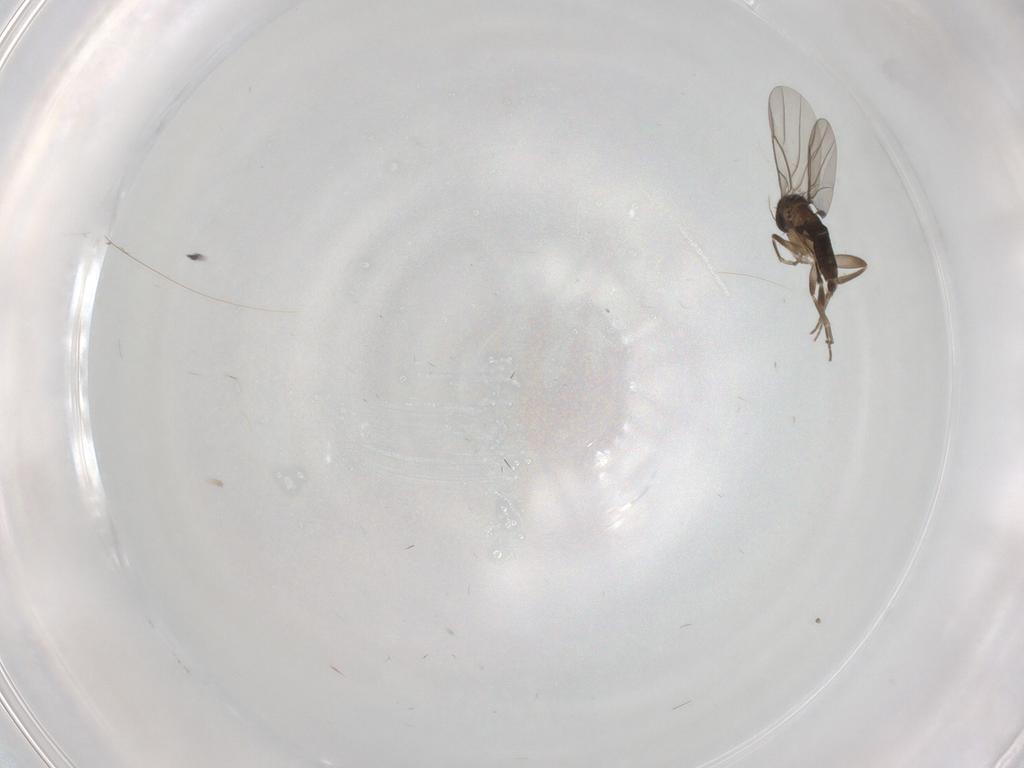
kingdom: Animalia
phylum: Arthropoda
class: Insecta
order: Diptera
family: Cecidomyiidae
